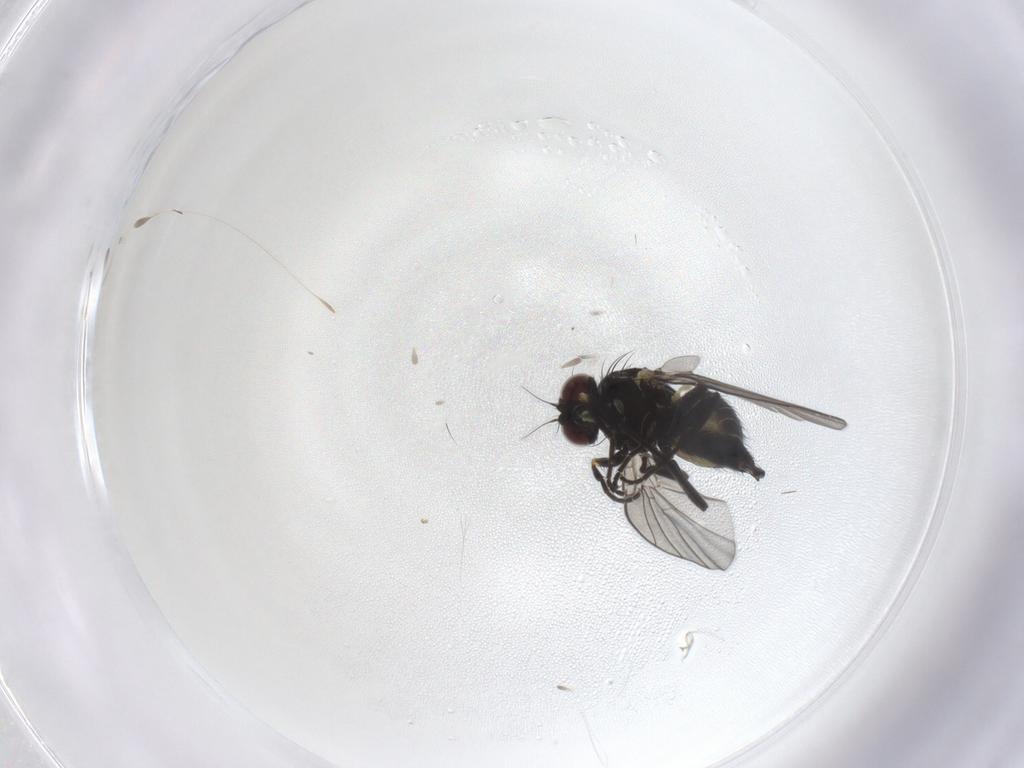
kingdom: Animalia
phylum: Arthropoda
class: Insecta
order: Diptera
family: Agromyzidae
